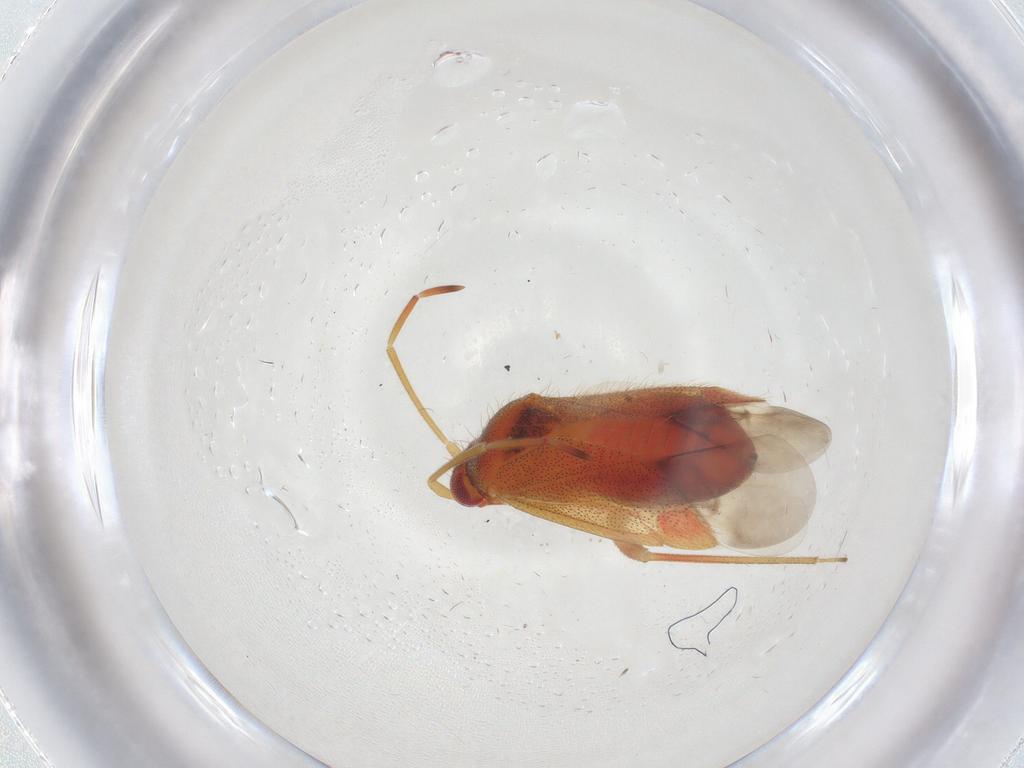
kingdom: Animalia
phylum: Arthropoda
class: Insecta
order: Hemiptera
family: Miridae
